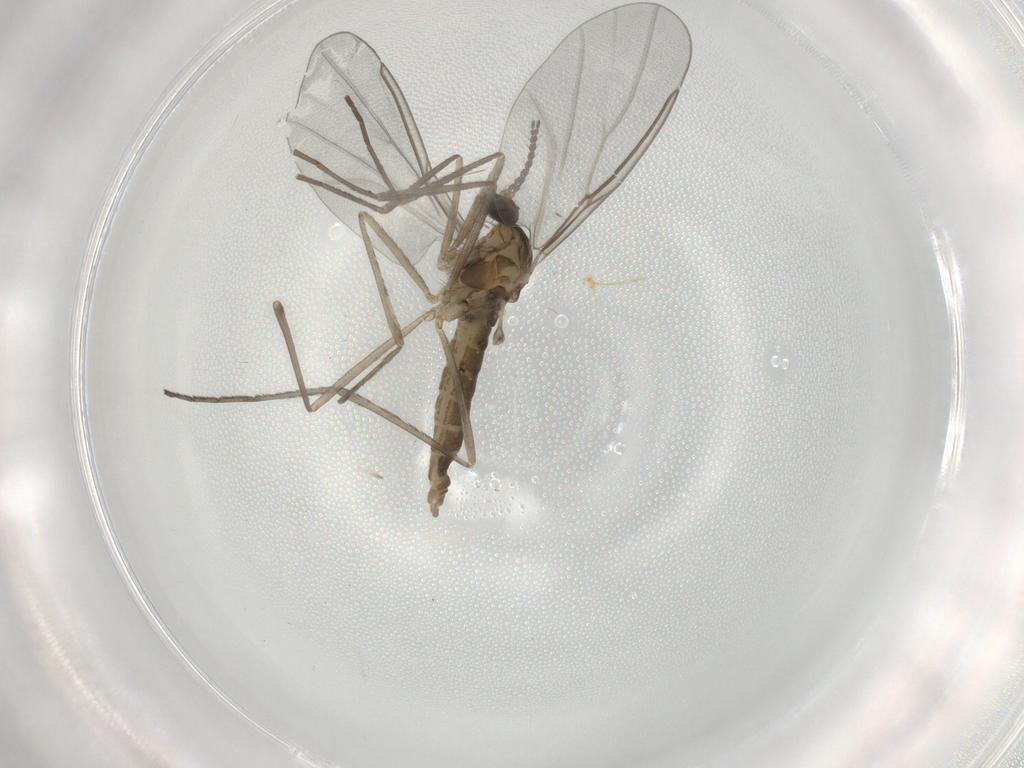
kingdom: Animalia
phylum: Arthropoda
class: Insecta
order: Diptera
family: Cecidomyiidae
